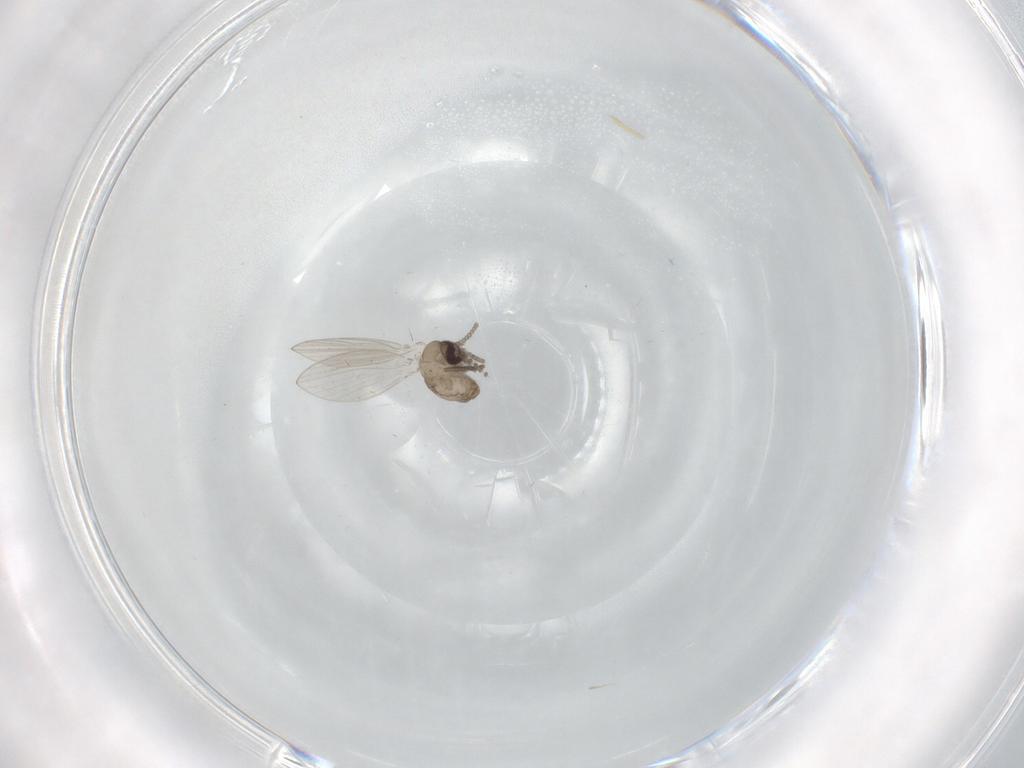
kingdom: Animalia
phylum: Arthropoda
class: Insecta
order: Diptera
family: Psychodidae
